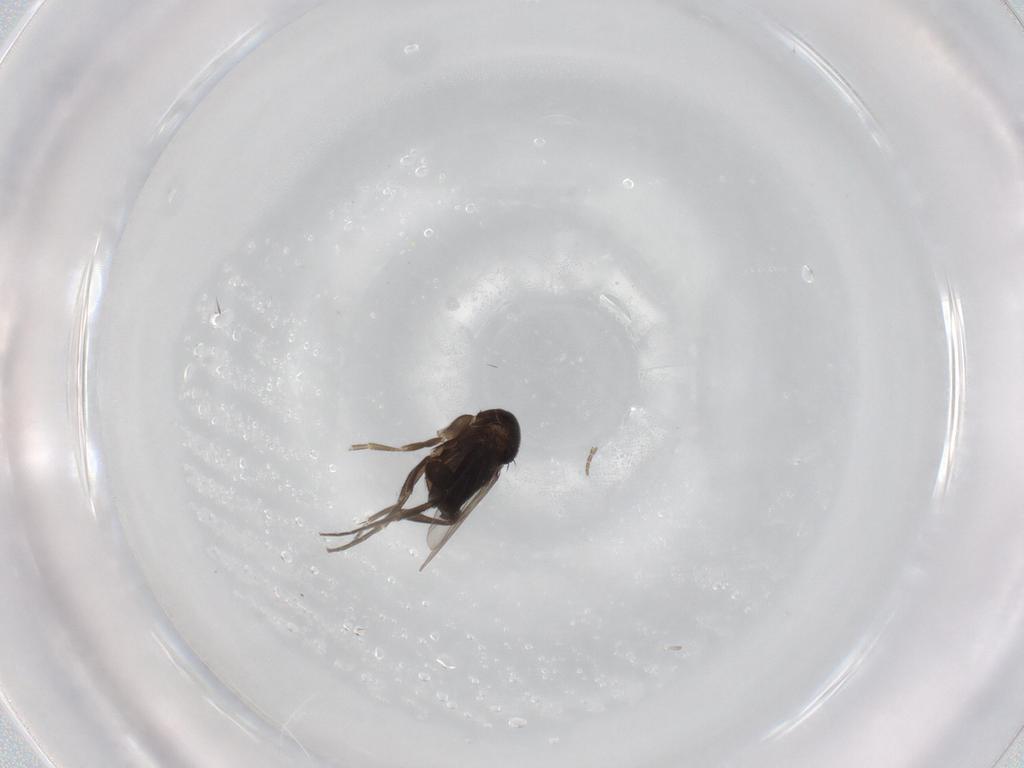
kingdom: Animalia
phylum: Arthropoda
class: Insecta
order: Diptera
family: Phoridae
